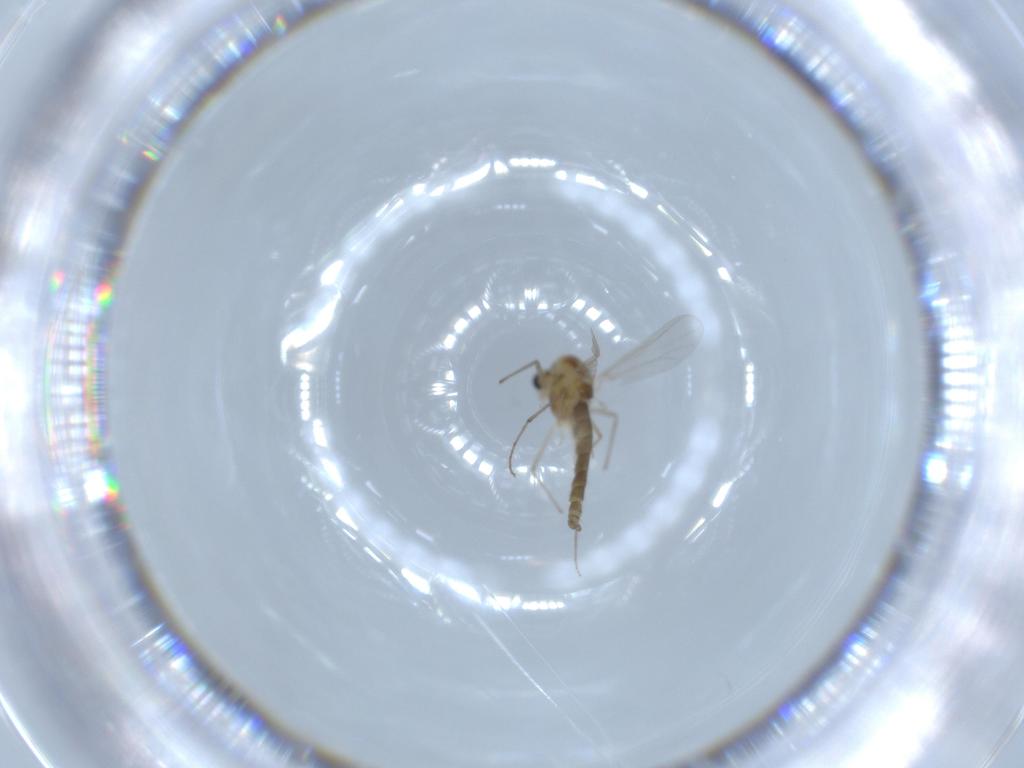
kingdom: Animalia
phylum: Arthropoda
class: Insecta
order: Diptera
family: Chironomidae
